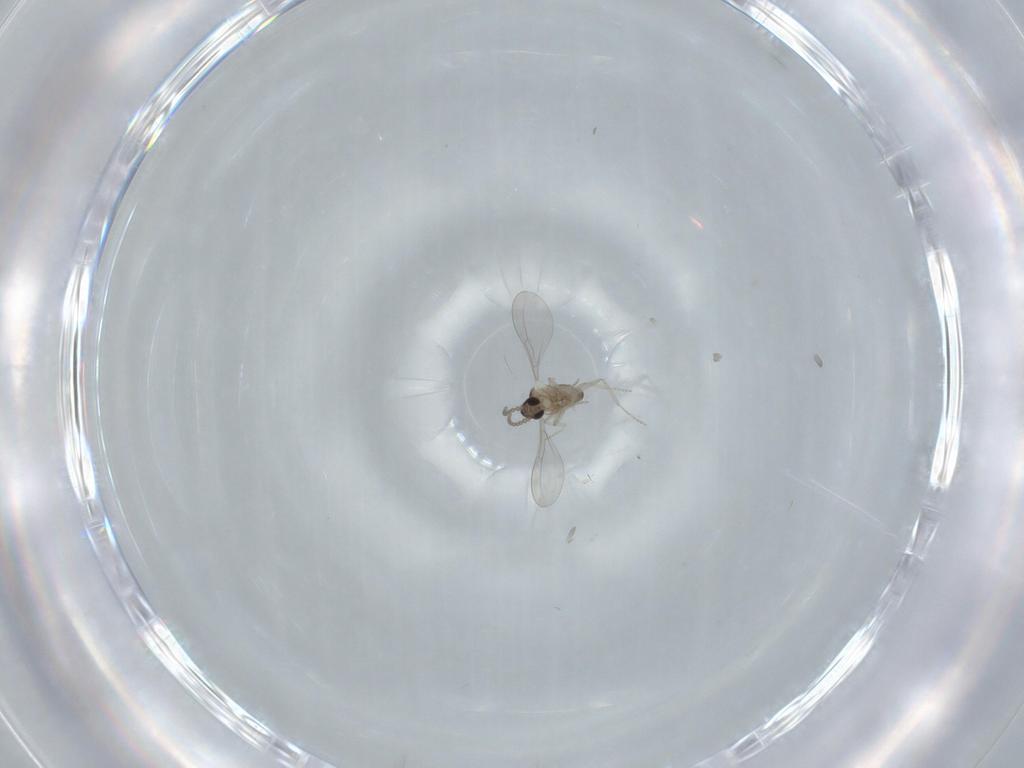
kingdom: Animalia
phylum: Arthropoda
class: Insecta
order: Diptera
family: Cecidomyiidae
